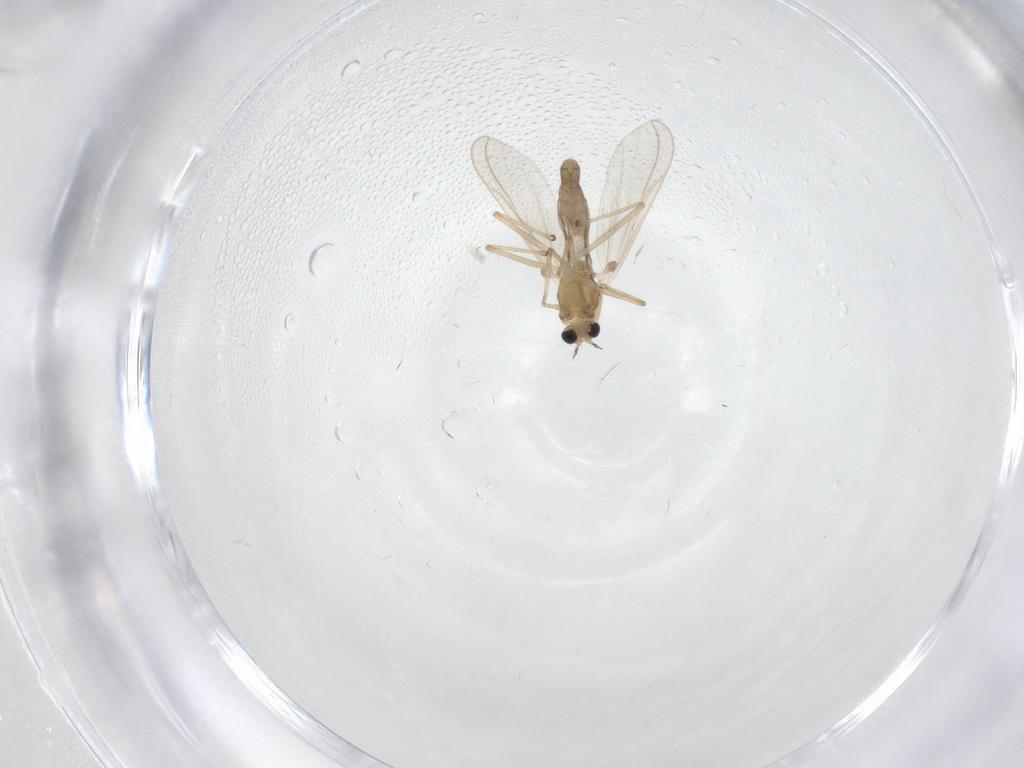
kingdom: Animalia
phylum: Arthropoda
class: Insecta
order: Diptera
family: Chironomidae
